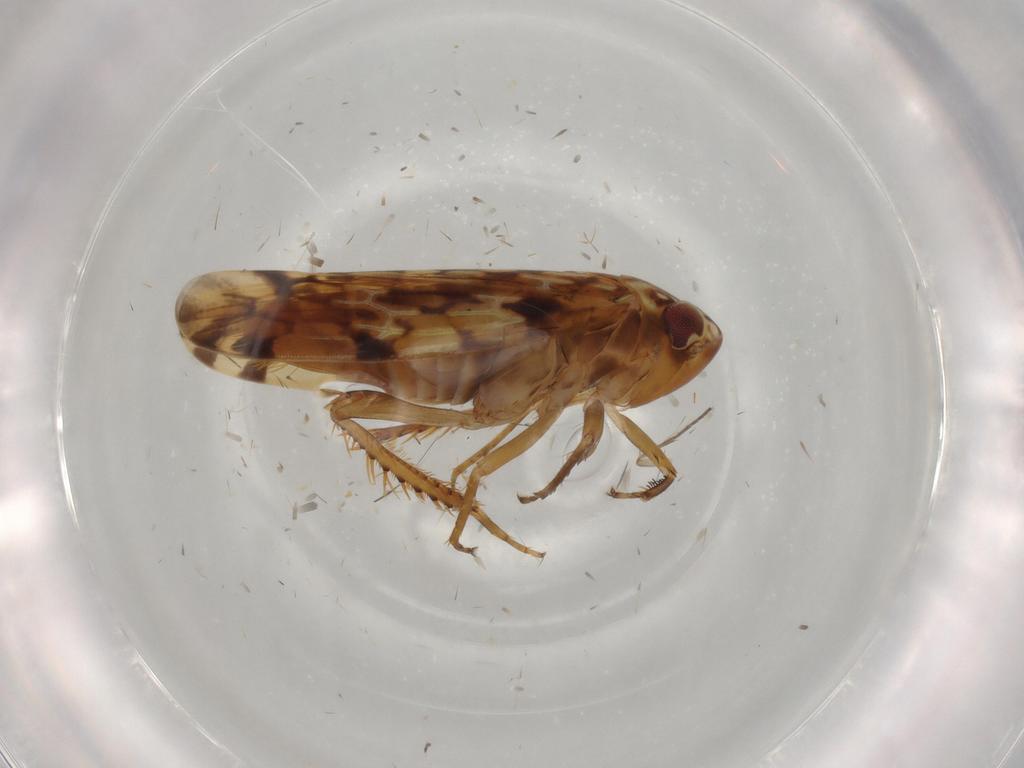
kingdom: Animalia
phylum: Arthropoda
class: Insecta
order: Hemiptera
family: Cicadellidae
